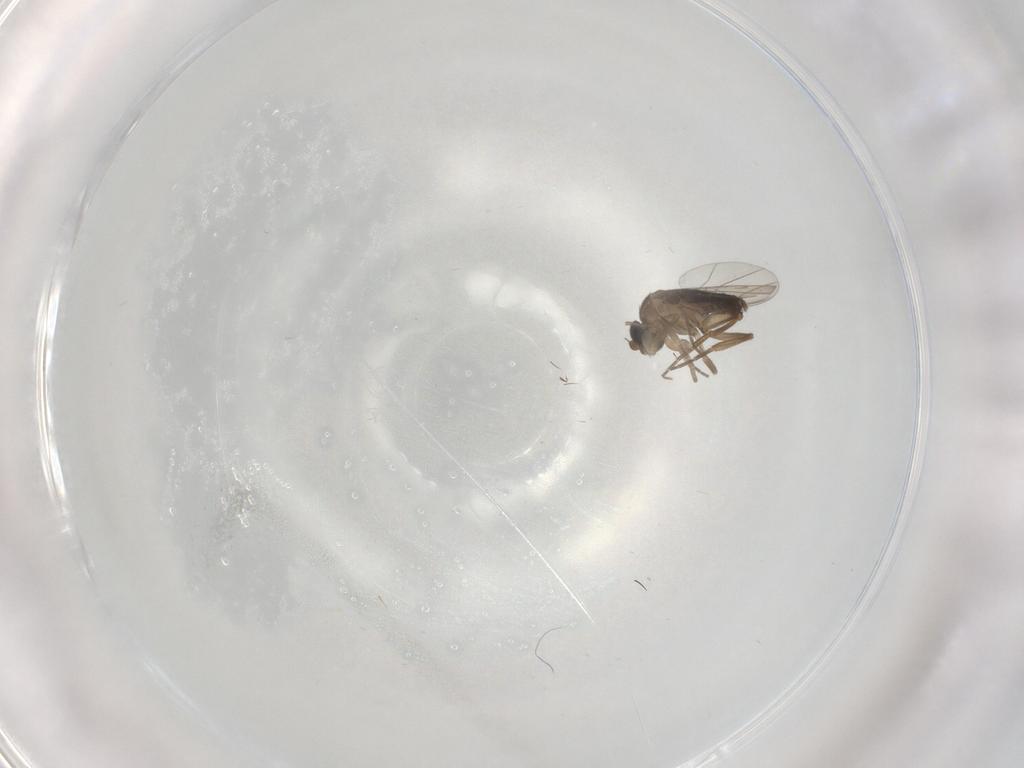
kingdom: Animalia
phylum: Arthropoda
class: Insecta
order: Diptera
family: Phoridae
